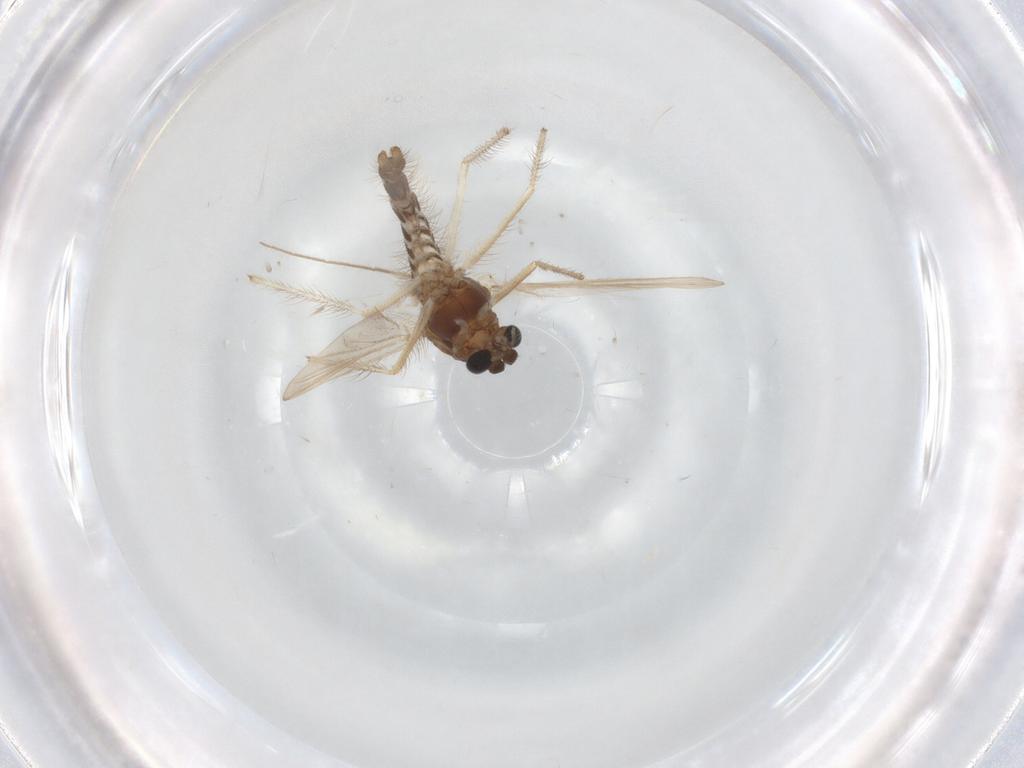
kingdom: Animalia
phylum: Arthropoda
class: Insecta
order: Diptera
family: Chironomidae
